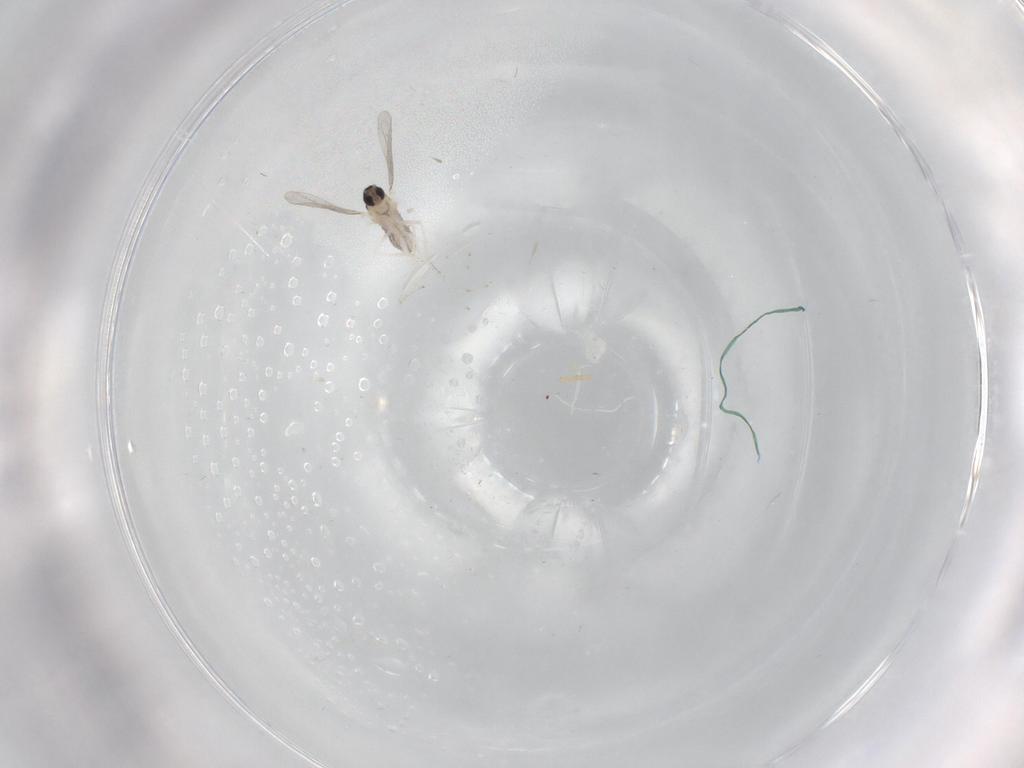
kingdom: Animalia
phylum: Arthropoda
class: Insecta
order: Diptera
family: Cecidomyiidae
